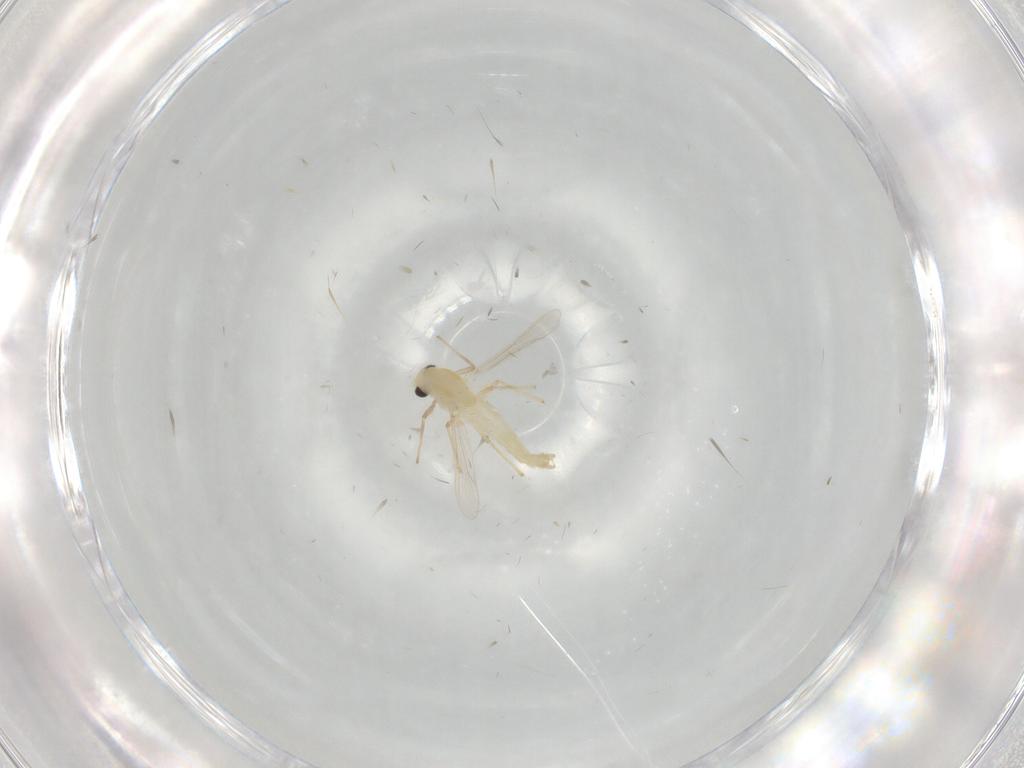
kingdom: Animalia
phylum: Arthropoda
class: Insecta
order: Diptera
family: Chironomidae
